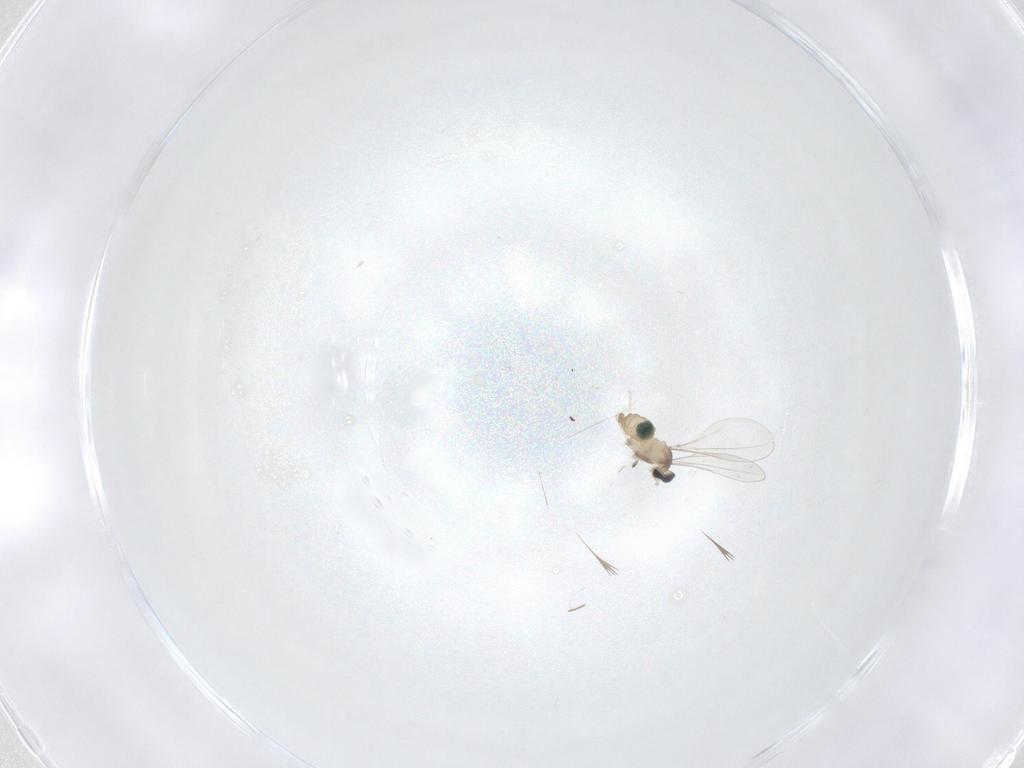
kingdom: Animalia
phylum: Arthropoda
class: Insecta
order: Diptera
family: Cecidomyiidae
